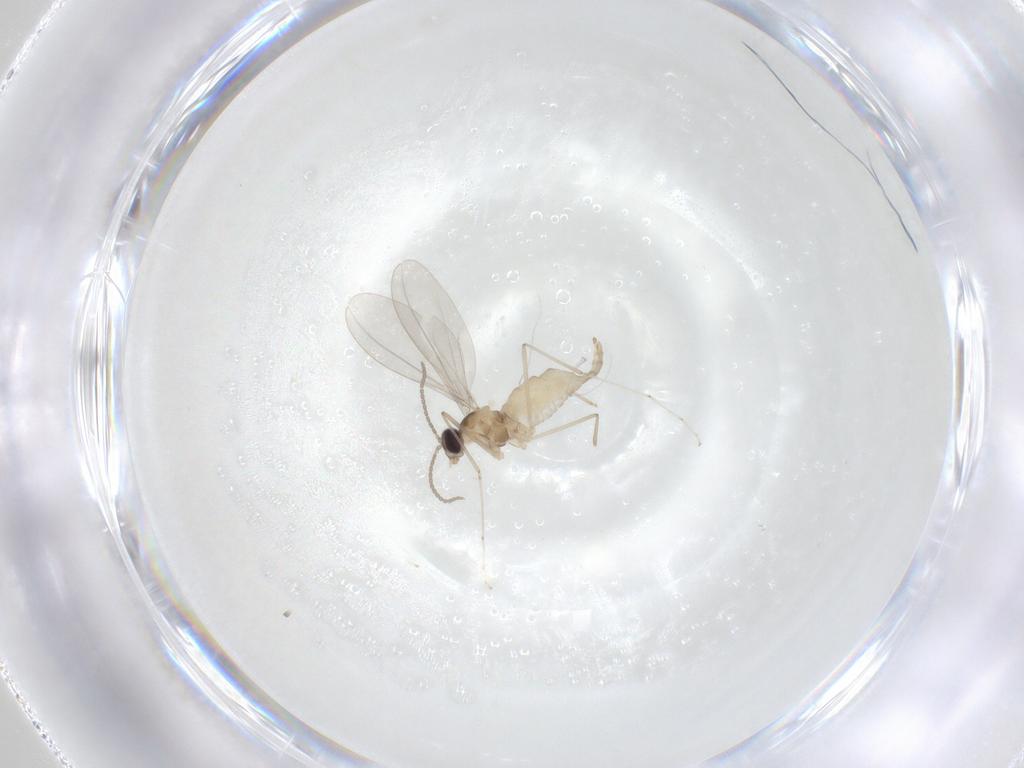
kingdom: Animalia
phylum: Arthropoda
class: Insecta
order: Diptera
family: Cecidomyiidae
